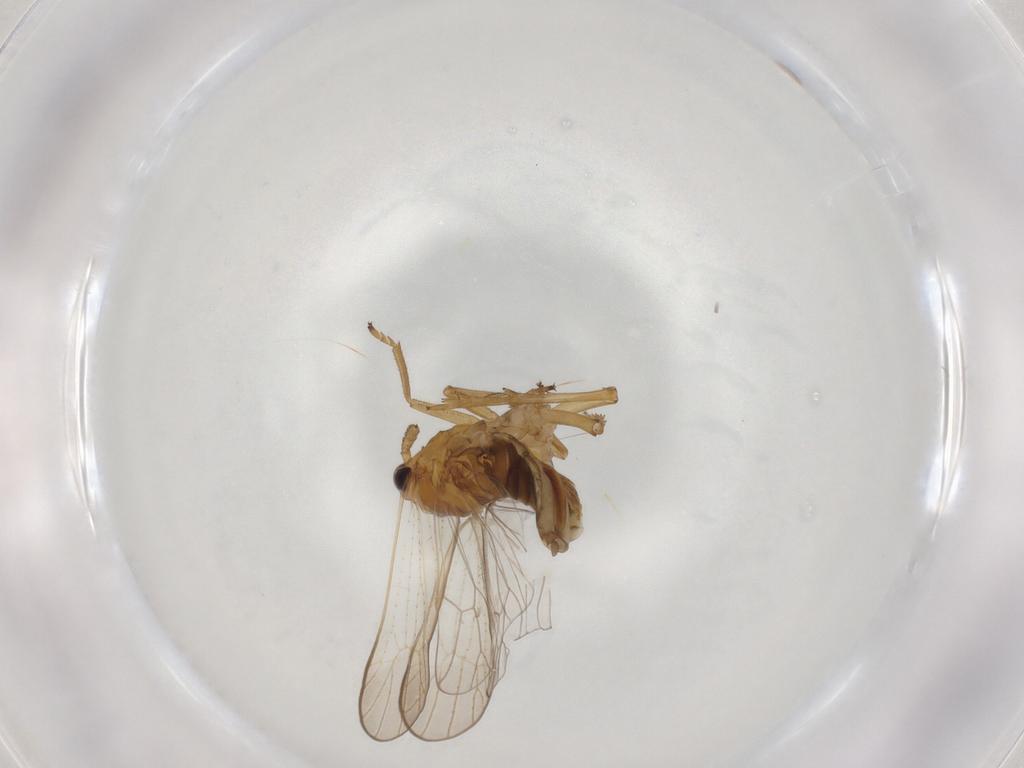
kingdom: Animalia
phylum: Arthropoda
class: Insecta
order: Hemiptera
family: Delphacidae
